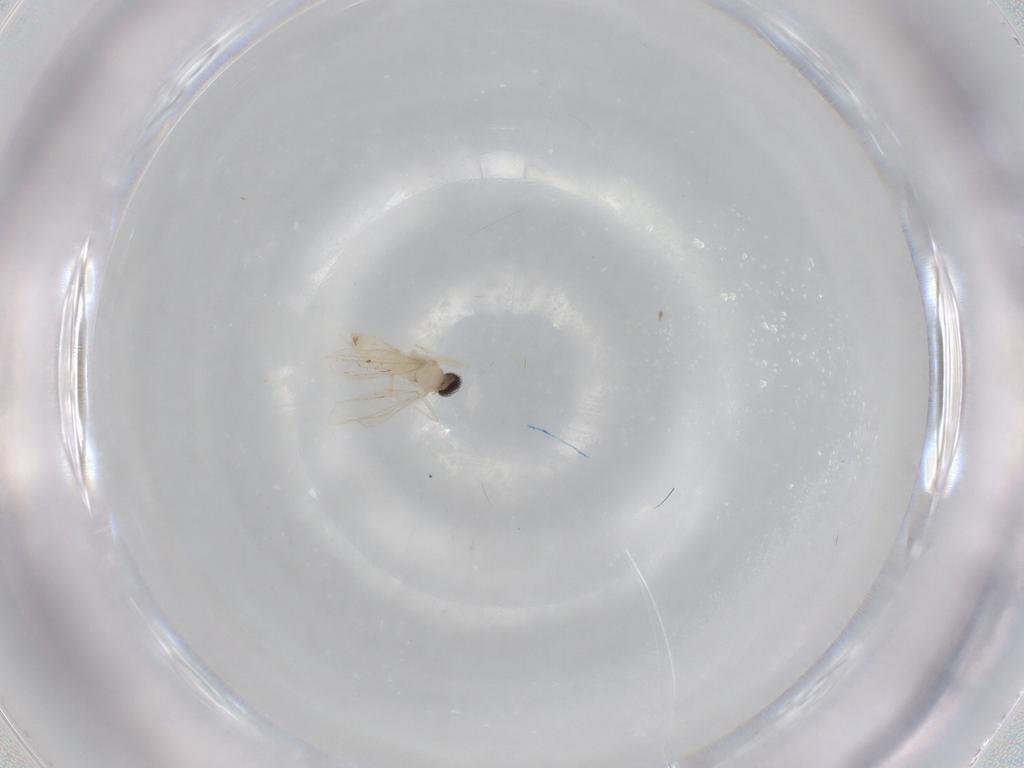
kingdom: Animalia
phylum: Arthropoda
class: Insecta
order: Diptera
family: Cecidomyiidae
